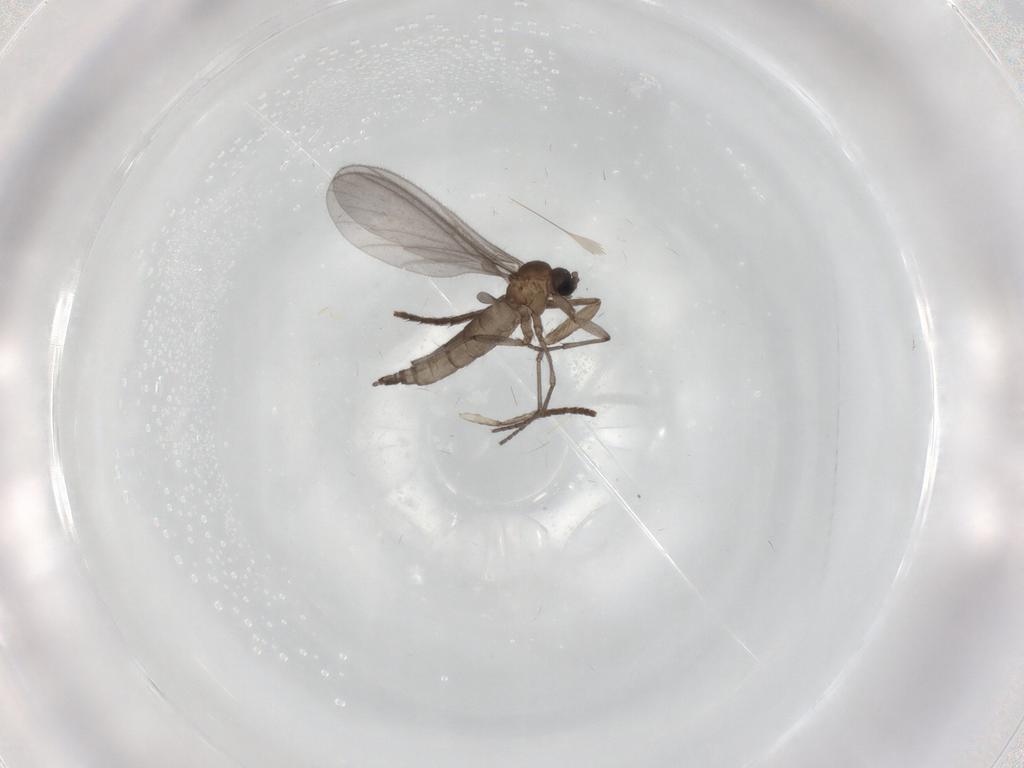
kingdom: Animalia
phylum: Arthropoda
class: Insecta
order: Diptera
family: Sciaridae
